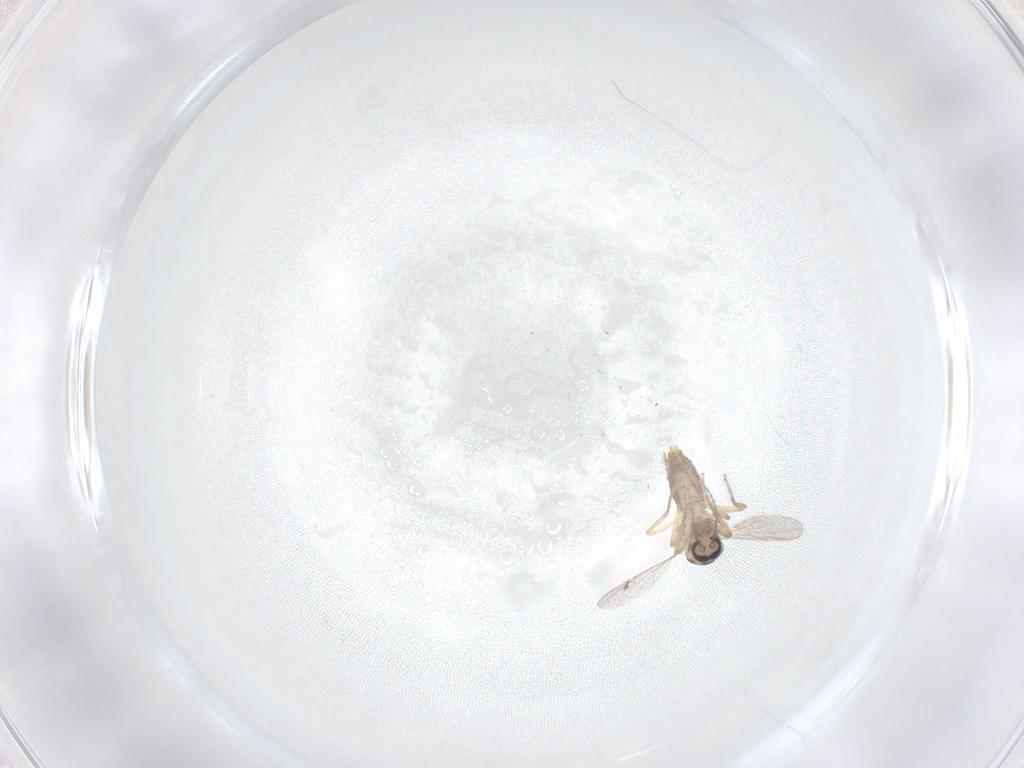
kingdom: Animalia
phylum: Arthropoda
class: Insecta
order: Diptera
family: Ceratopogonidae
